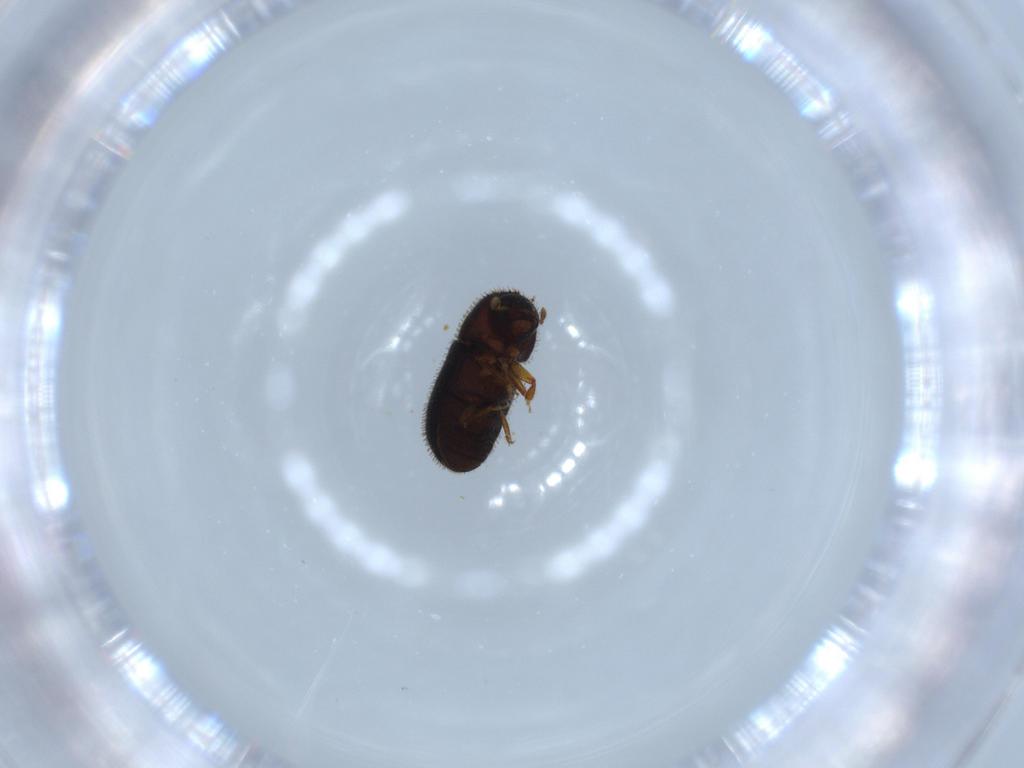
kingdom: Animalia
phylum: Arthropoda
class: Insecta
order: Coleoptera
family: Curculionidae
